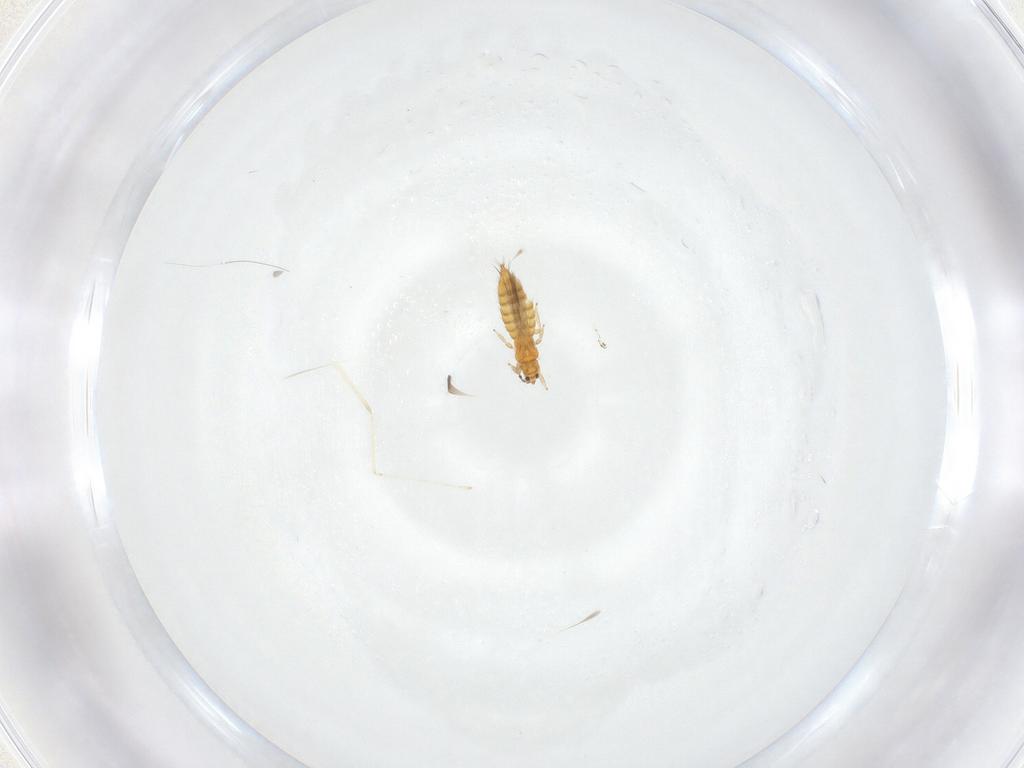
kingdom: Animalia
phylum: Arthropoda
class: Insecta
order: Thysanoptera
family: Thripidae
